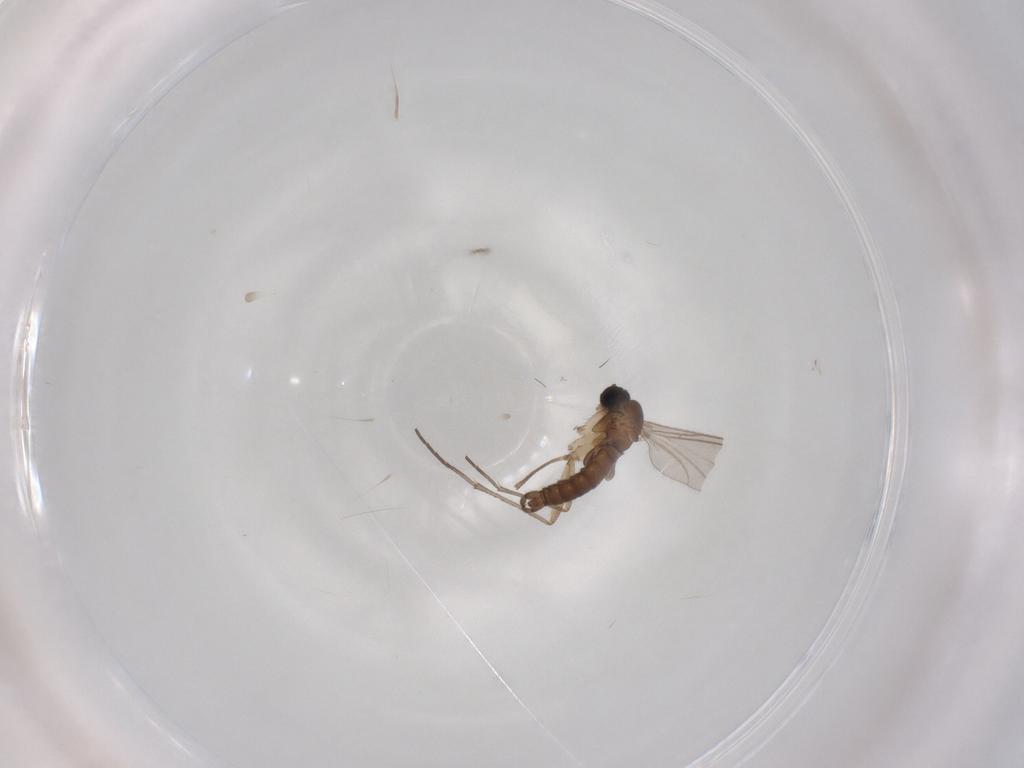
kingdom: Animalia
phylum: Arthropoda
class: Insecta
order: Diptera
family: Sciaridae
